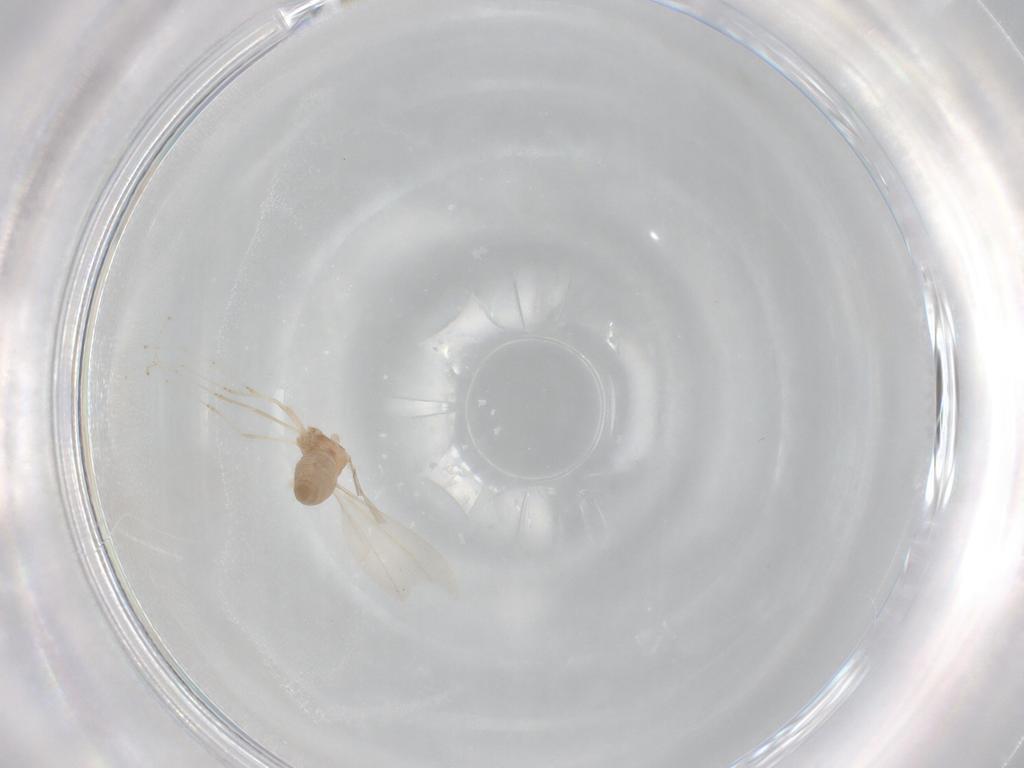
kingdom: Animalia
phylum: Arthropoda
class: Insecta
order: Diptera
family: Cecidomyiidae
